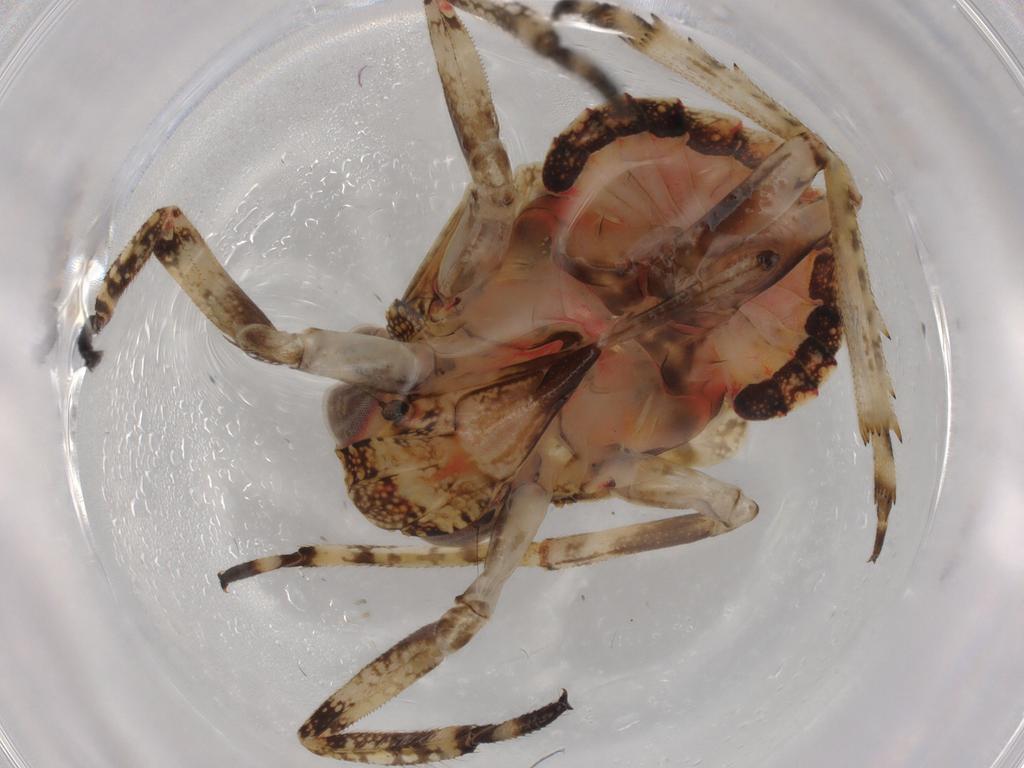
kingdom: Animalia
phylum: Arthropoda
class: Insecta
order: Hemiptera
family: Caliscelidae
